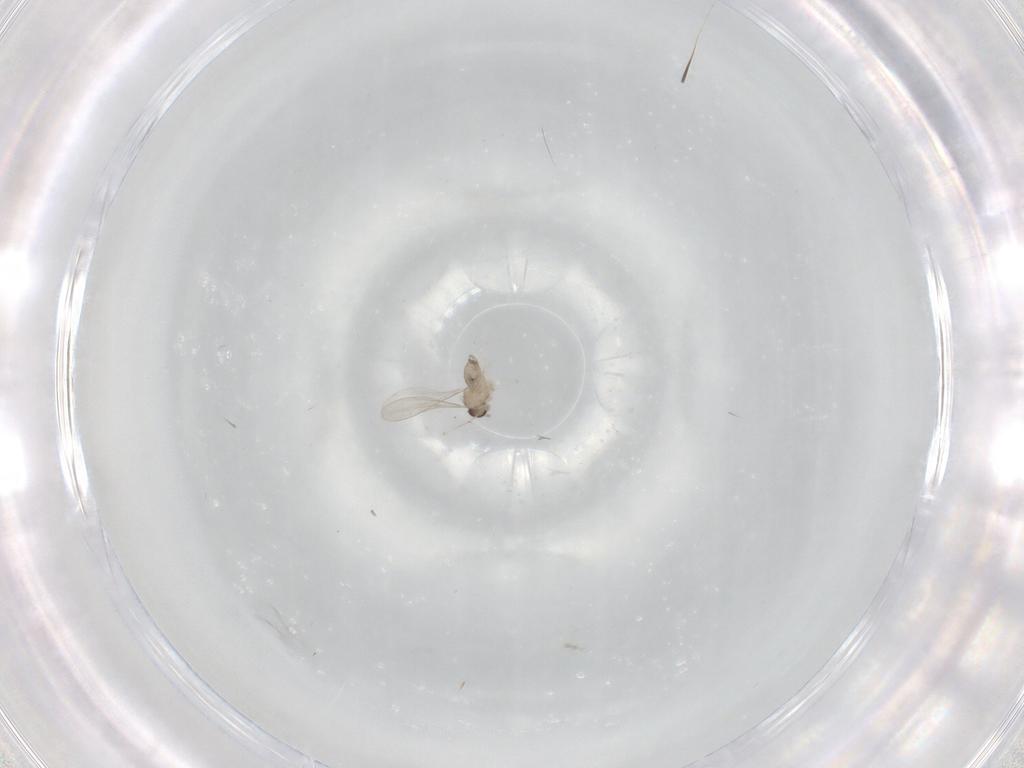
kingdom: Animalia
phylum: Arthropoda
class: Insecta
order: Diptera
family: Cecidomyiidae
